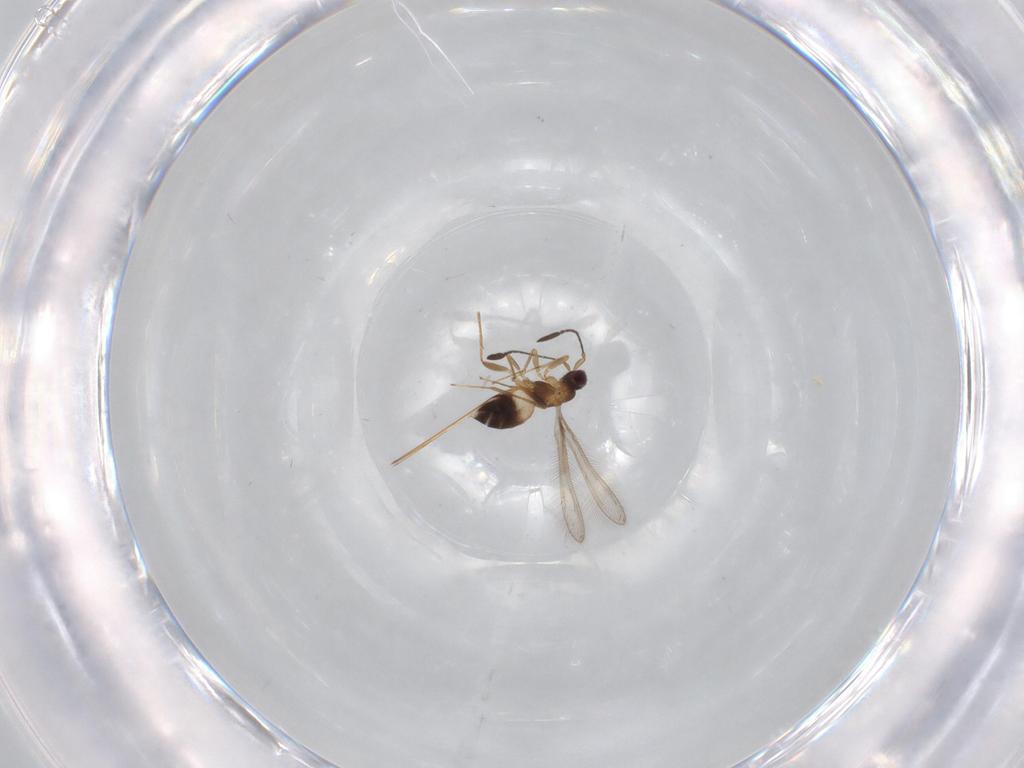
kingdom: Animalia
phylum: Arthropoda
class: Insecta
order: Hymenoptera
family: Mymaridae
